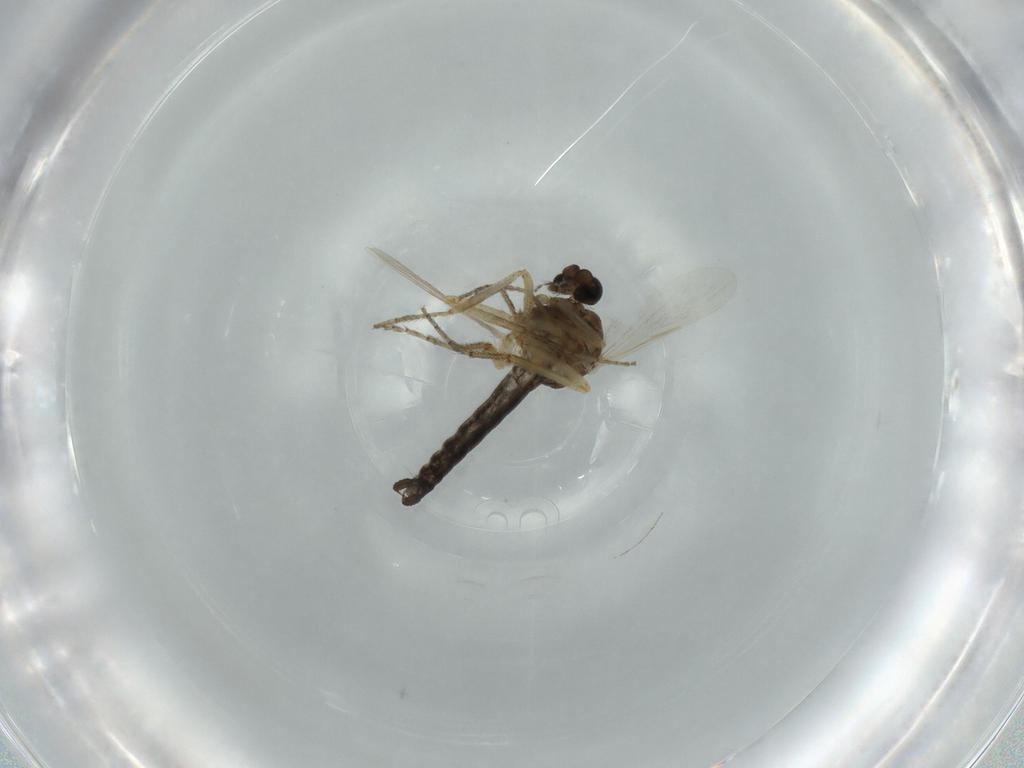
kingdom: Animalia
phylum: Arthropoda
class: Insecta
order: Diptera
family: Ceratopogonidae
